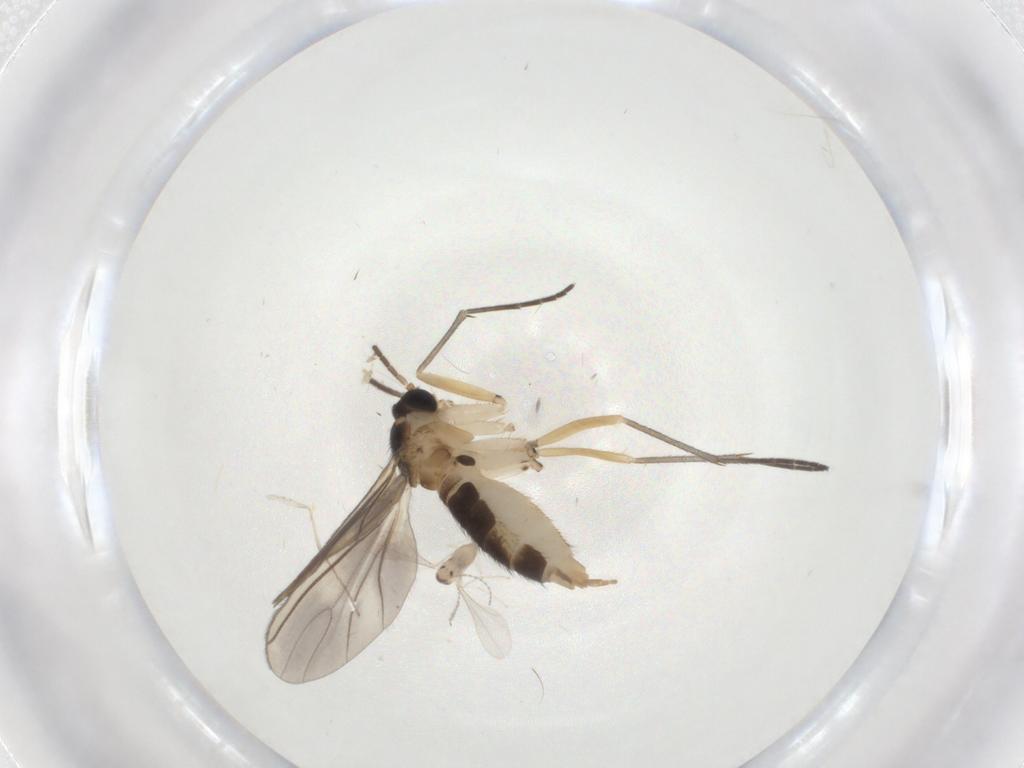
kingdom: Animalia
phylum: Arthropoda
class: Insecta
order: Diptera
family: Cecidomyiidae
